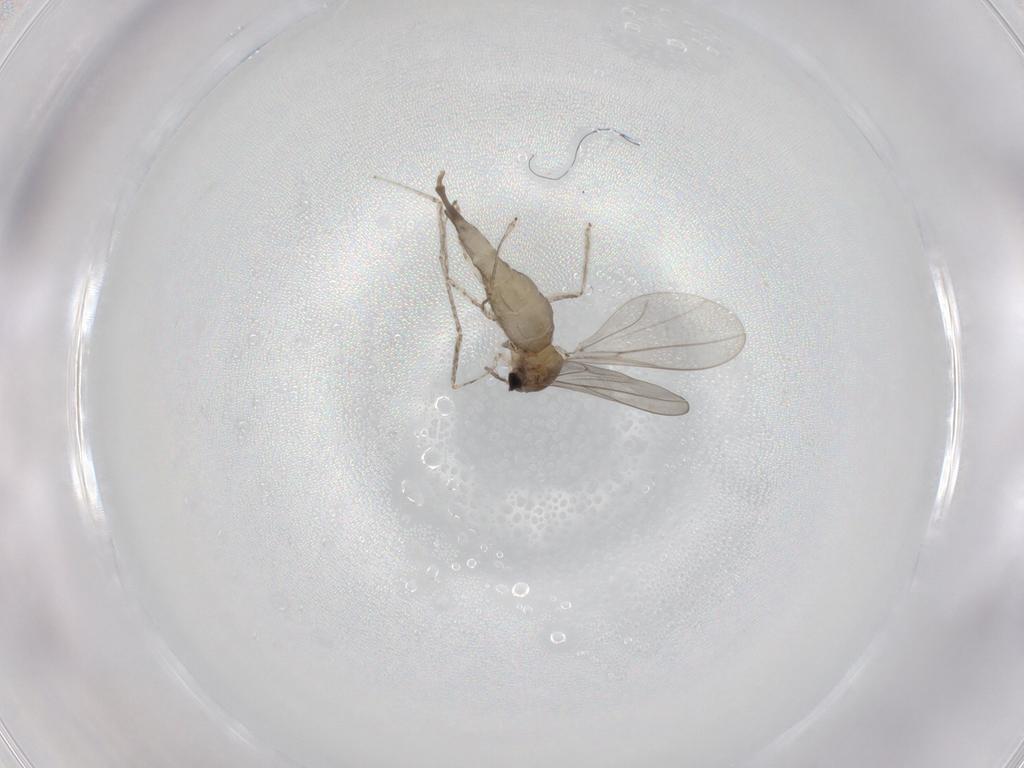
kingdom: Animalia
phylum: Arthropoda
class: Insecta
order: Diptera
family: Cecidomyiidae
